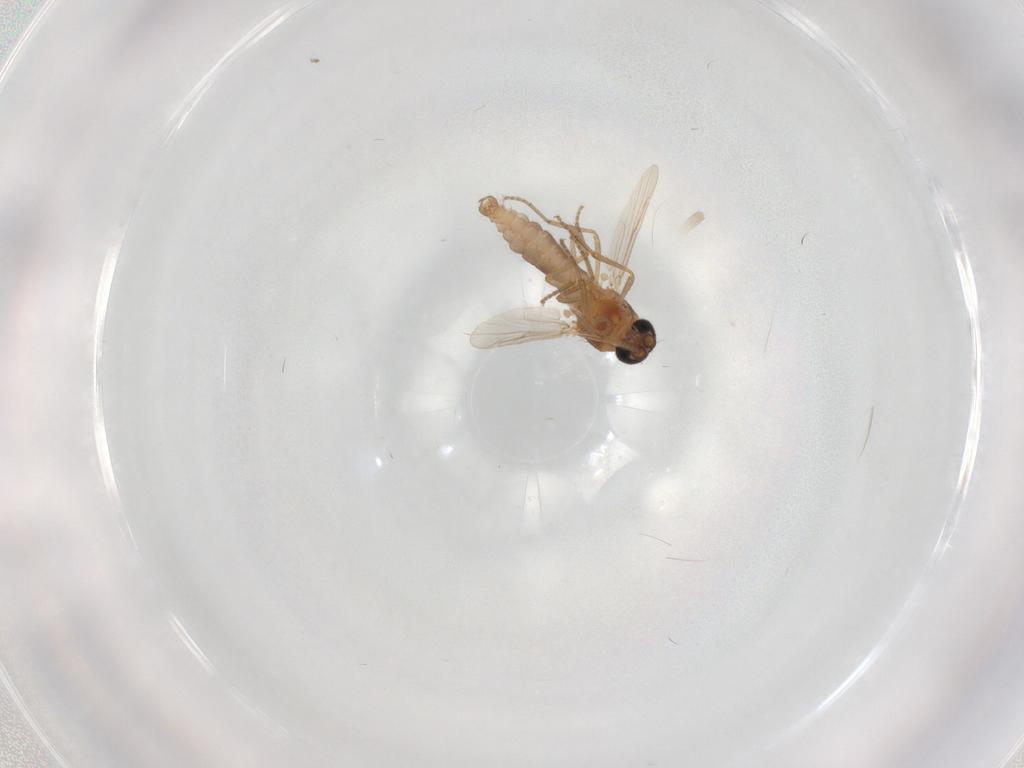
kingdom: Animalia
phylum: Arthropoda
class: Insecta
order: Diptera
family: Ceratopogonidae
